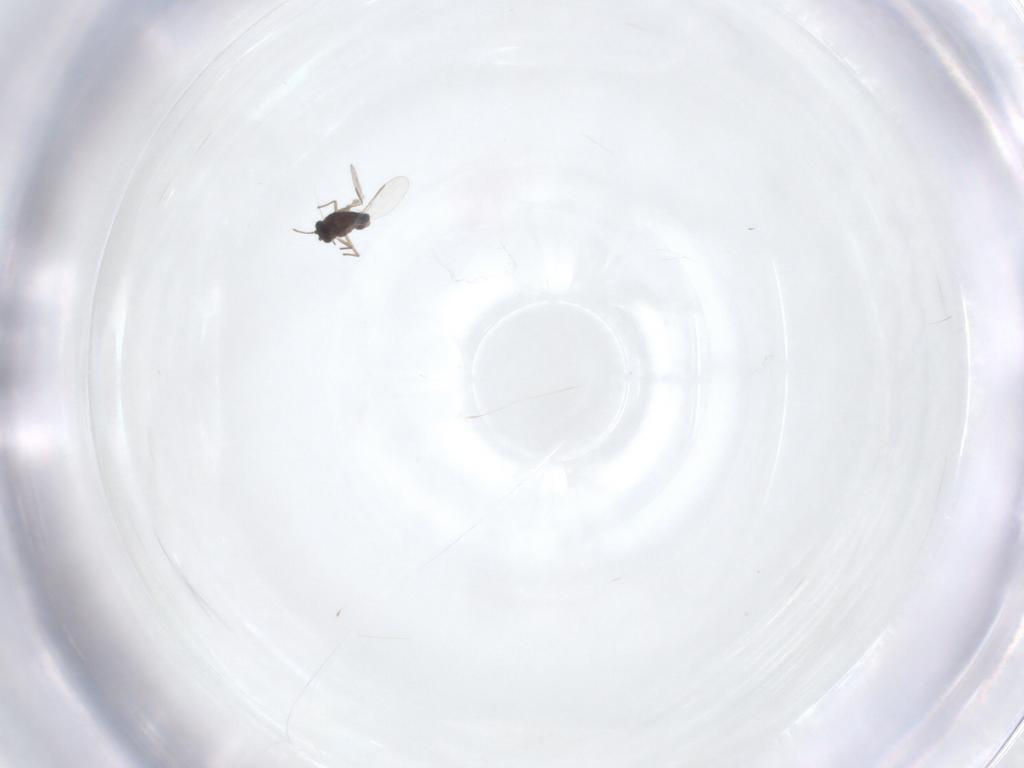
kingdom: Animalia
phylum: Arthropoda
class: Insecta
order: Diptera
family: Chironomidae
